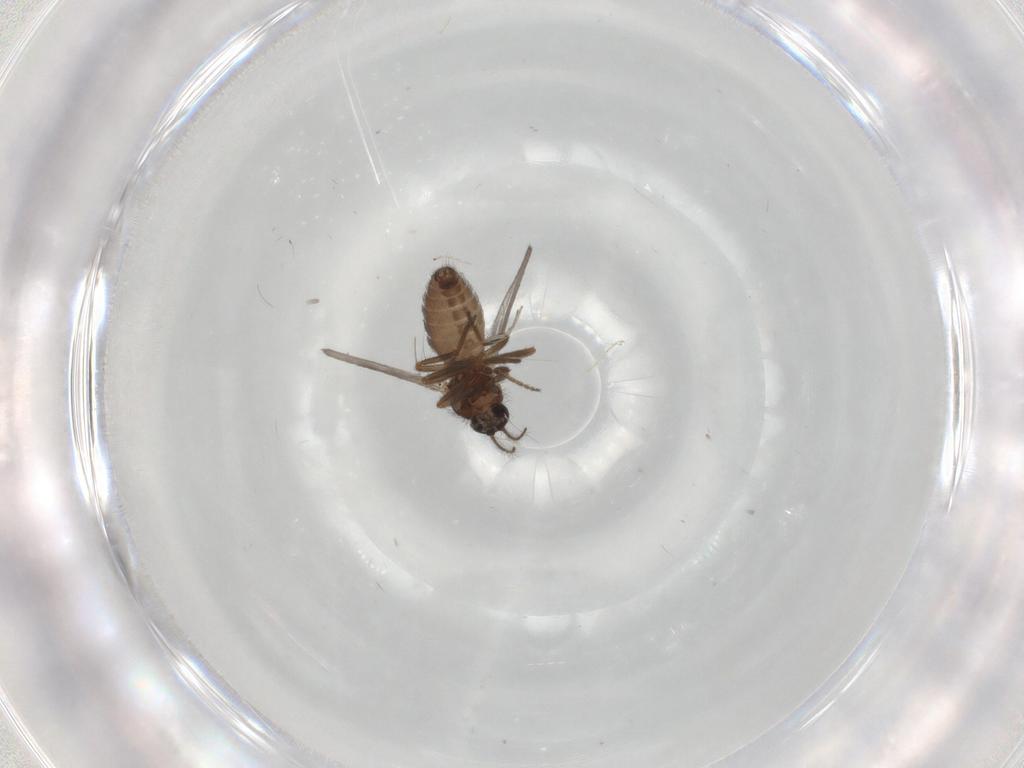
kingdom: Animalia
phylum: Arthropoda
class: Insecta
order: Diptera
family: Ceratopogonidae
